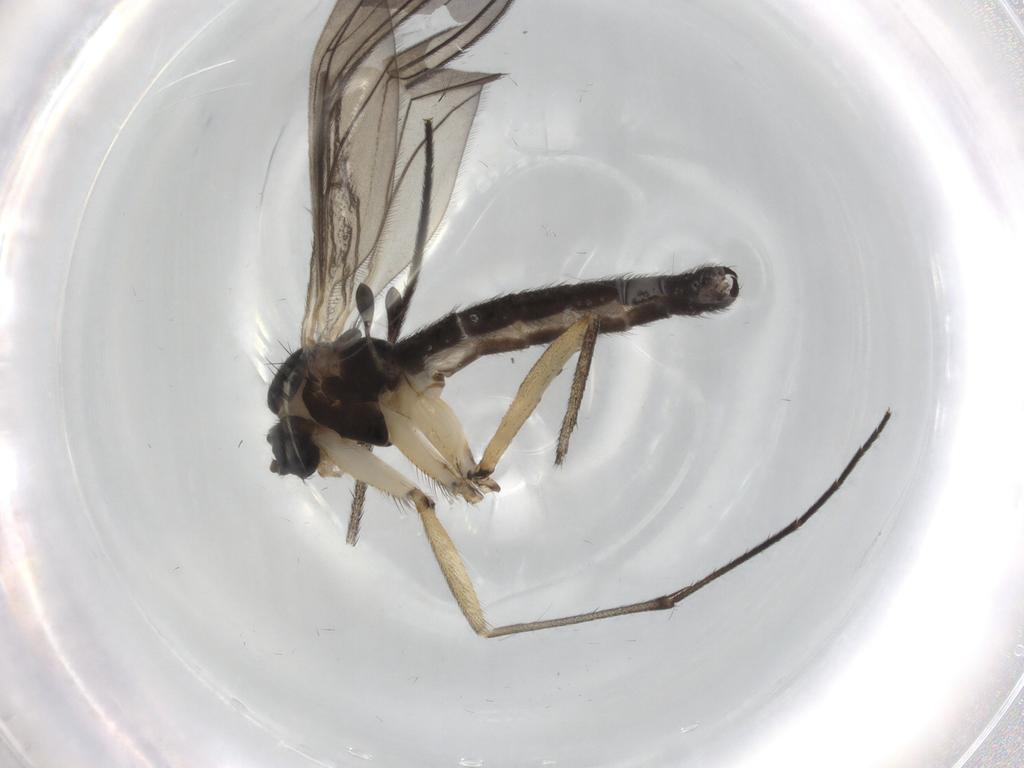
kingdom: Animalia
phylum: Arthropoda
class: Insecta
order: Diptera
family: Sciaridae
